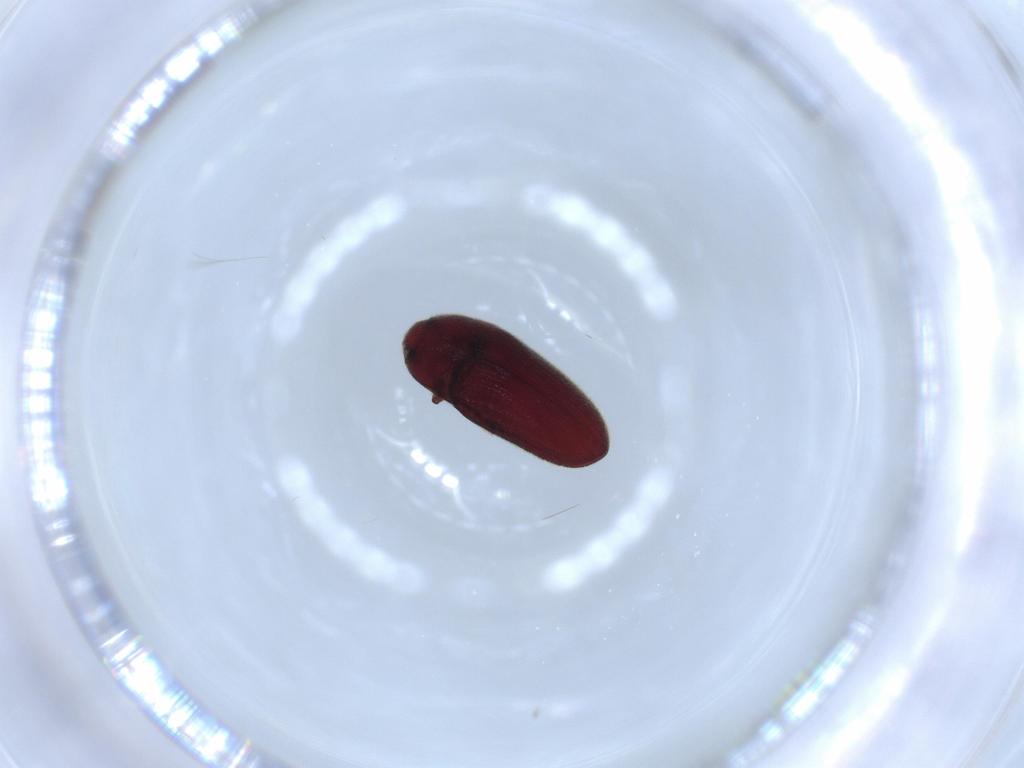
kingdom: Animalia
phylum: Arthropoda
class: Insecta
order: Coleoptera
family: Throscidae
